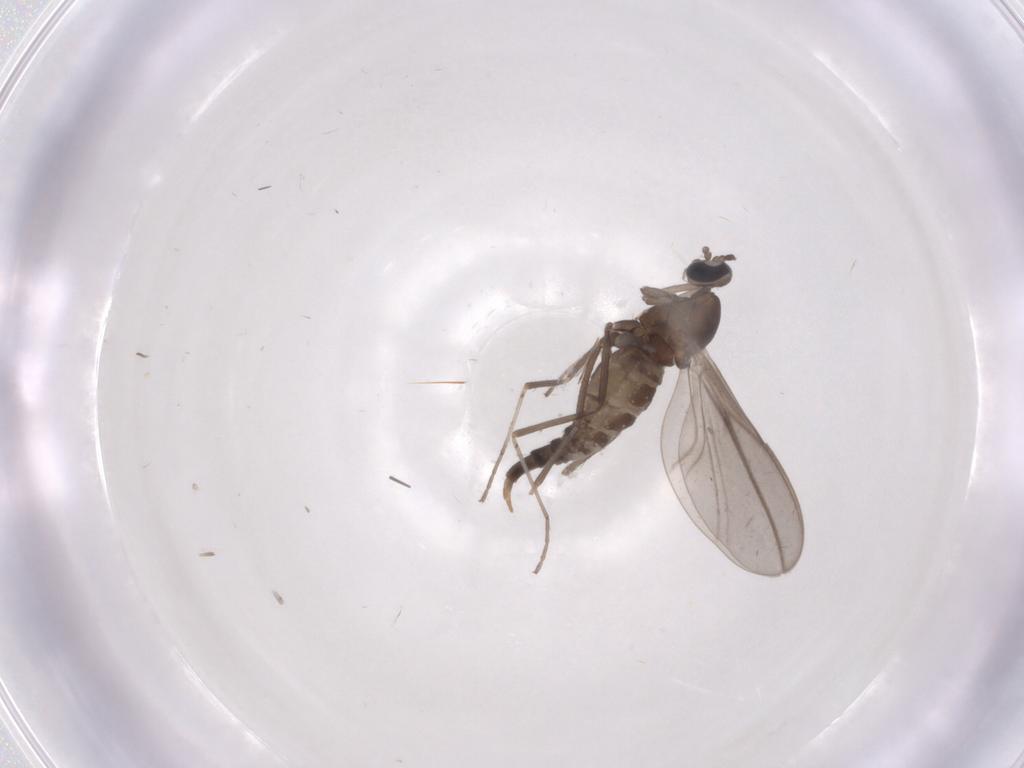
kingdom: Animalia
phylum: Arthropoda
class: Insecta
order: Diptera
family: Cecidomyiidae
